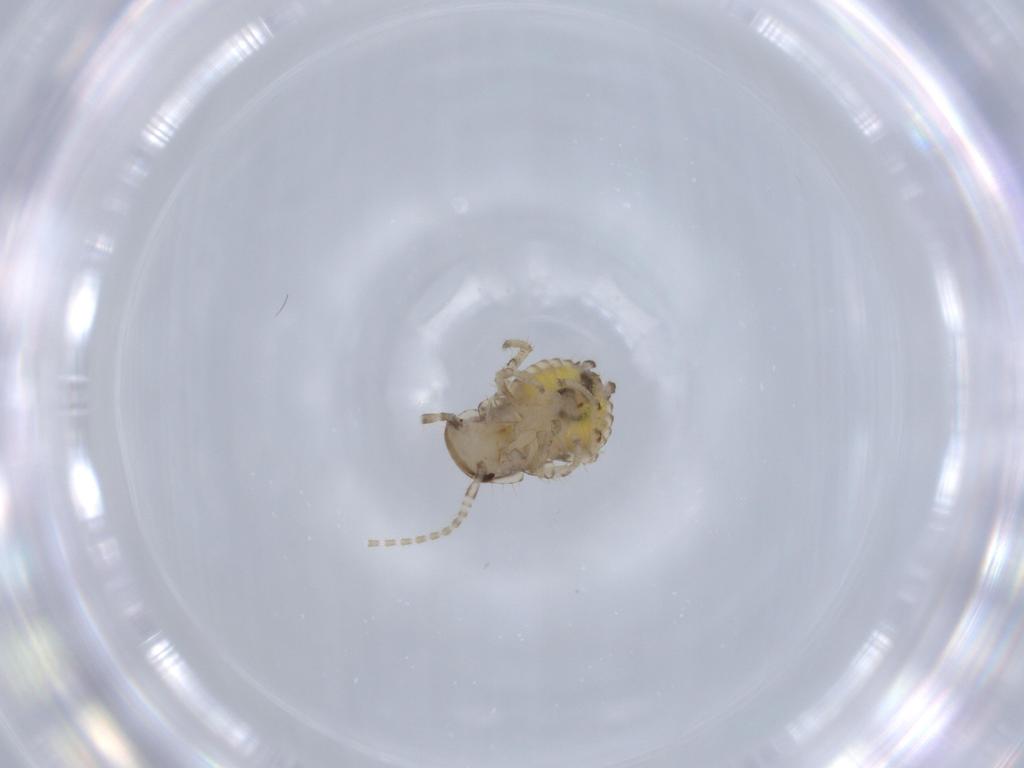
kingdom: Animalia
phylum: Arthropoda
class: Insecta
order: Blattodea
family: Ectobiidae
